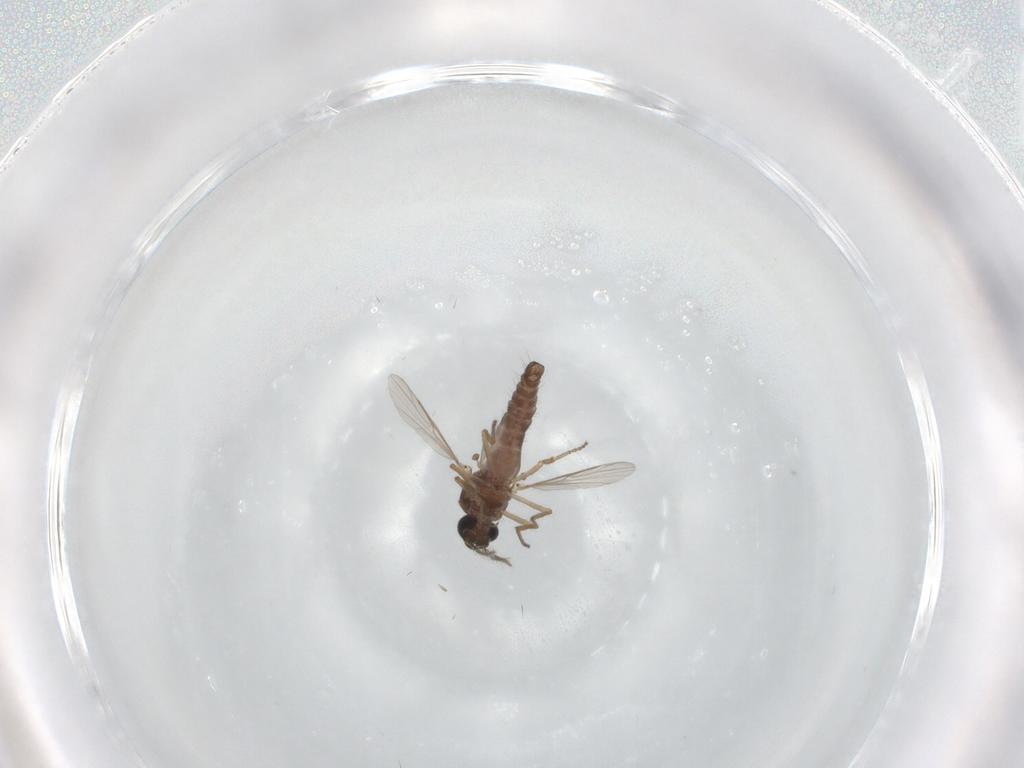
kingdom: Animalia
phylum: Arthropoda
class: Insecta
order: Diptera
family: Ceratopogonidae
